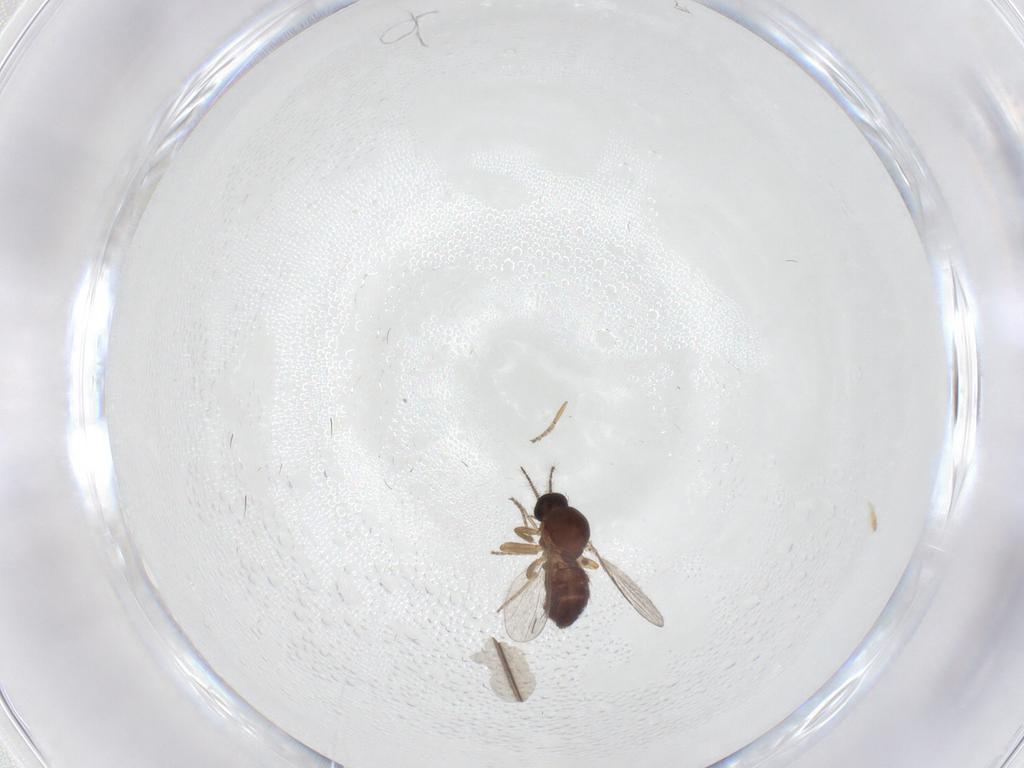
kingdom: Animalia
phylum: Arthropoda
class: Insecta
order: Diptera
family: Ceratopogonidae
